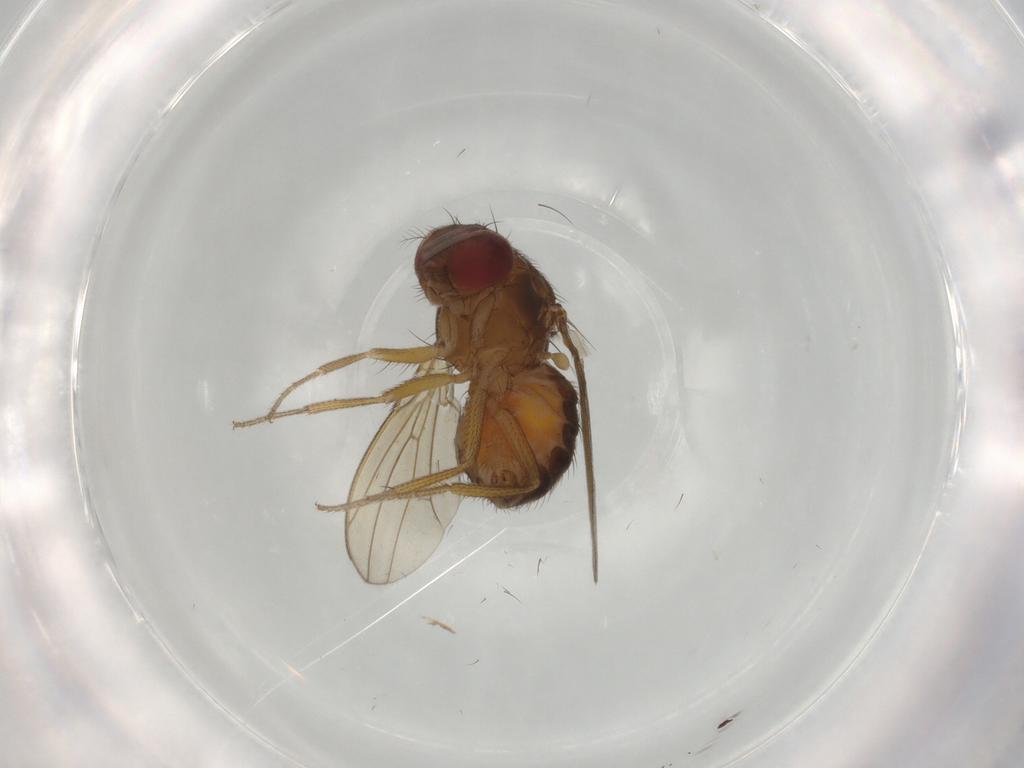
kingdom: Animalia
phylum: Arthropoda
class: Insecta
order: Diptera
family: Drosophilidae
